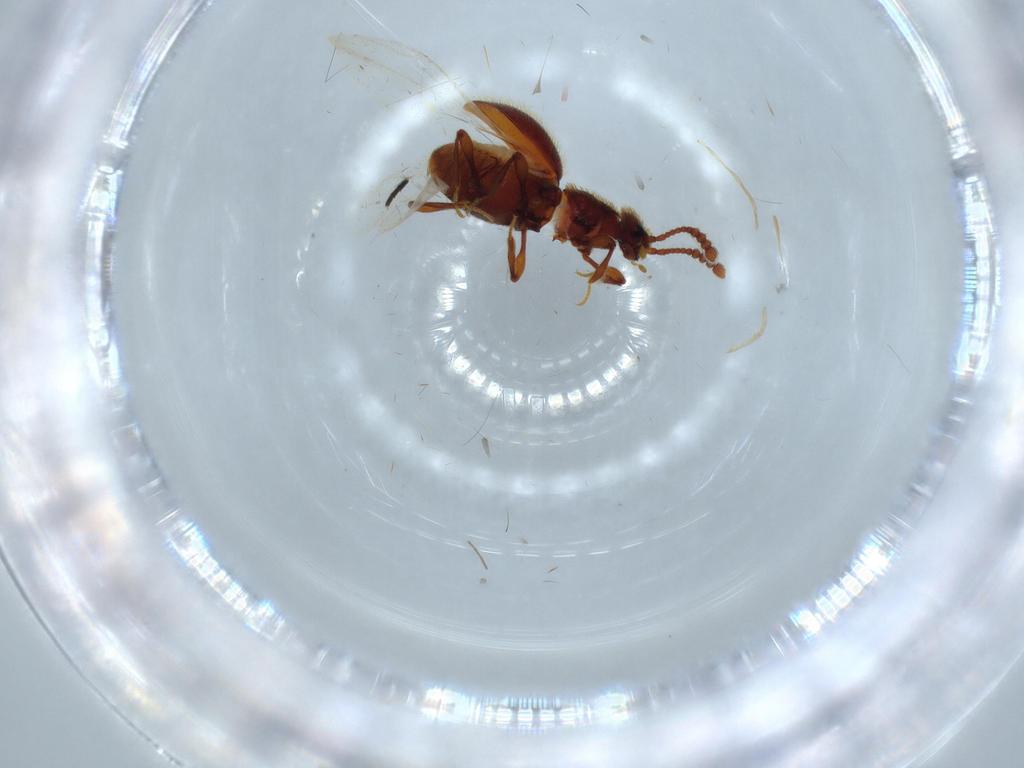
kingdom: Animalia
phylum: Arthropoda
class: Insecta
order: Coleoptera
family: Staphylinidae
